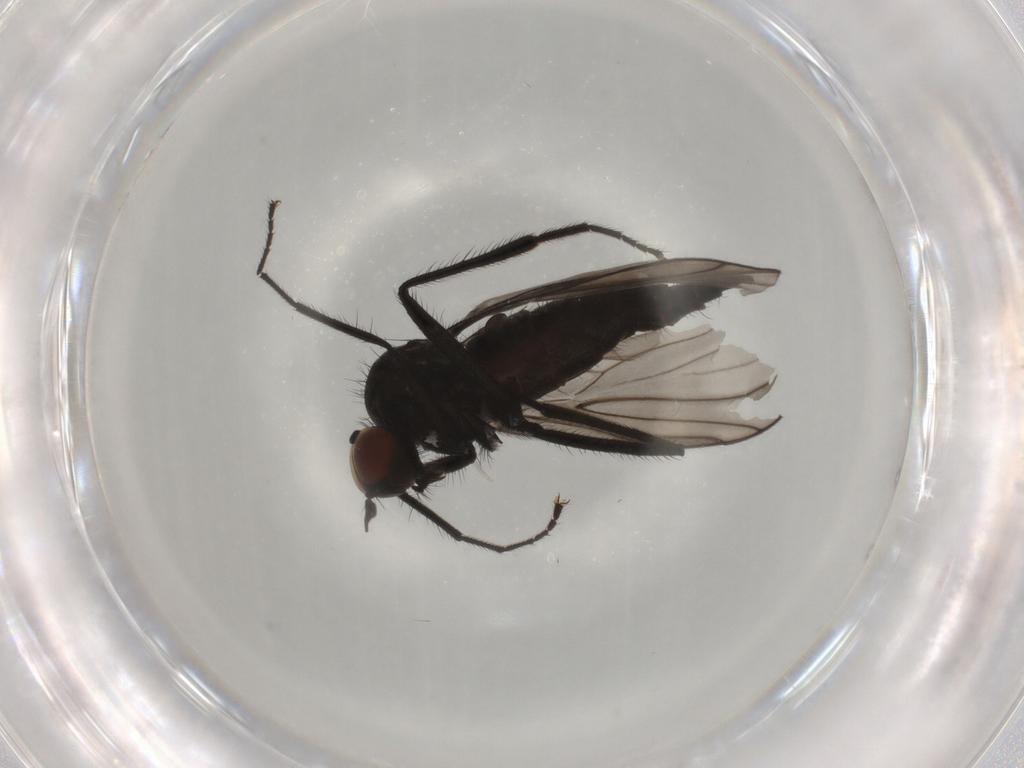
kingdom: Animalia
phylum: Arthropoda
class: Insecta
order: Diptera
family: Chironomidae
